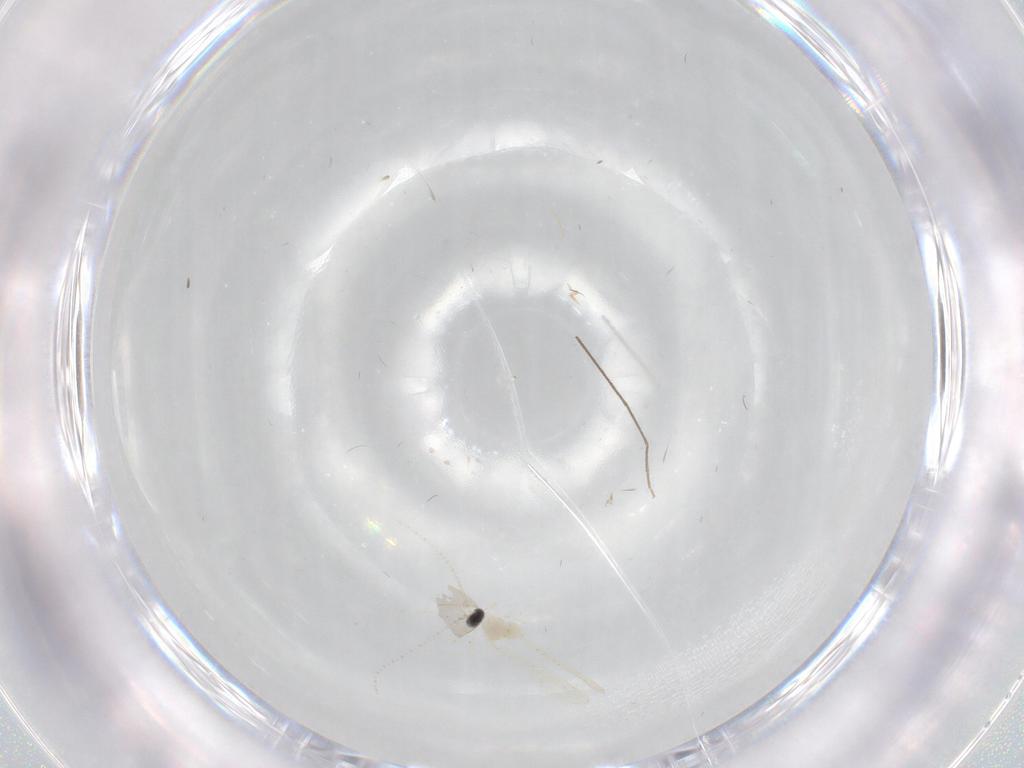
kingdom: Animalia
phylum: Arthropoda
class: Insecta
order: Diptera
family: Cecidomyiidae
